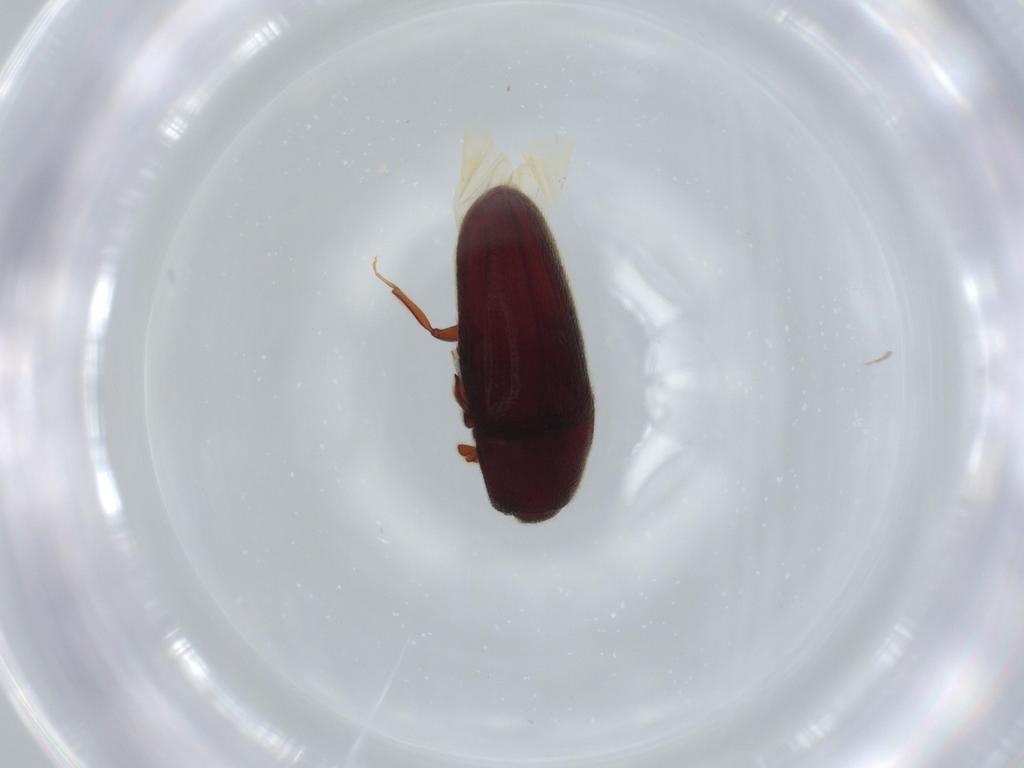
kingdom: Animalia
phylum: Arthropoda
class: Insecta
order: Coleoptera
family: Throscidae
